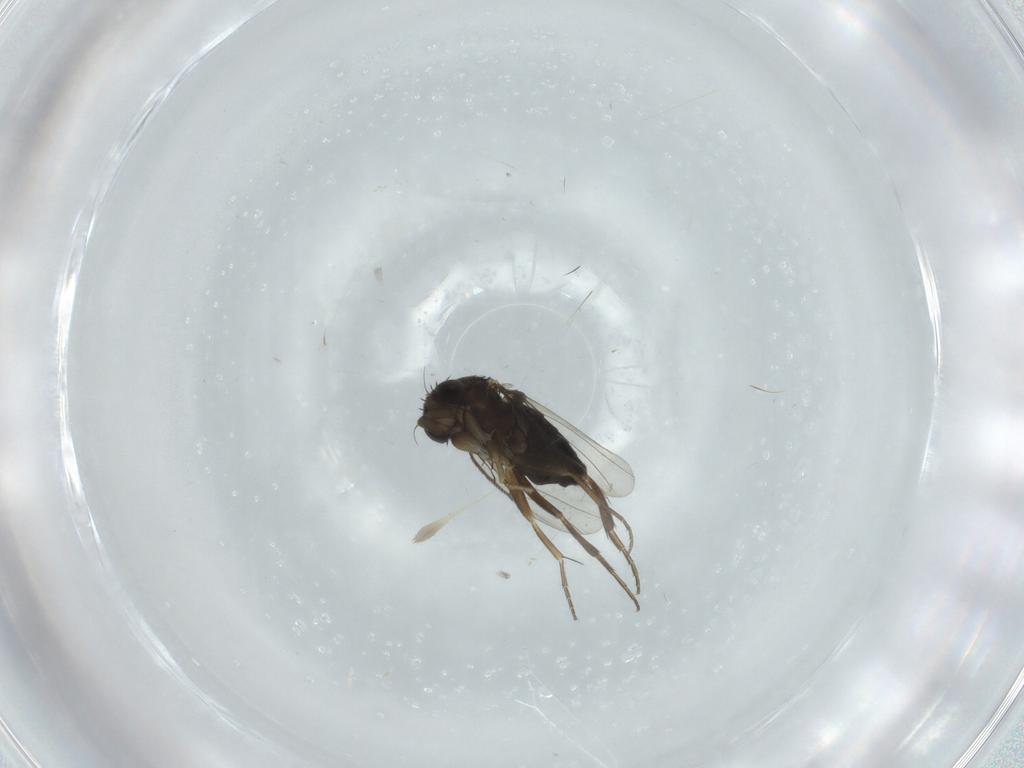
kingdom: Animalia
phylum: Arthropoda
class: Insecta
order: Diptera
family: Phoridae
